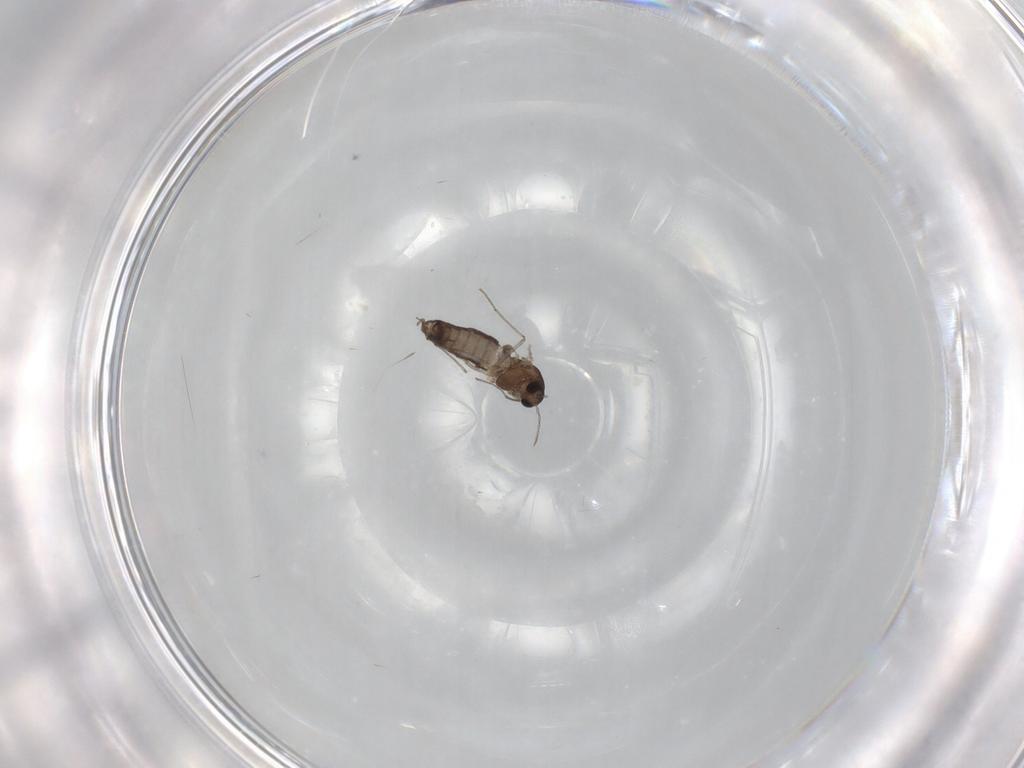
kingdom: Animalia
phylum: Arthropoda
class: Insecta
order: Diptera
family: Chironomidae
